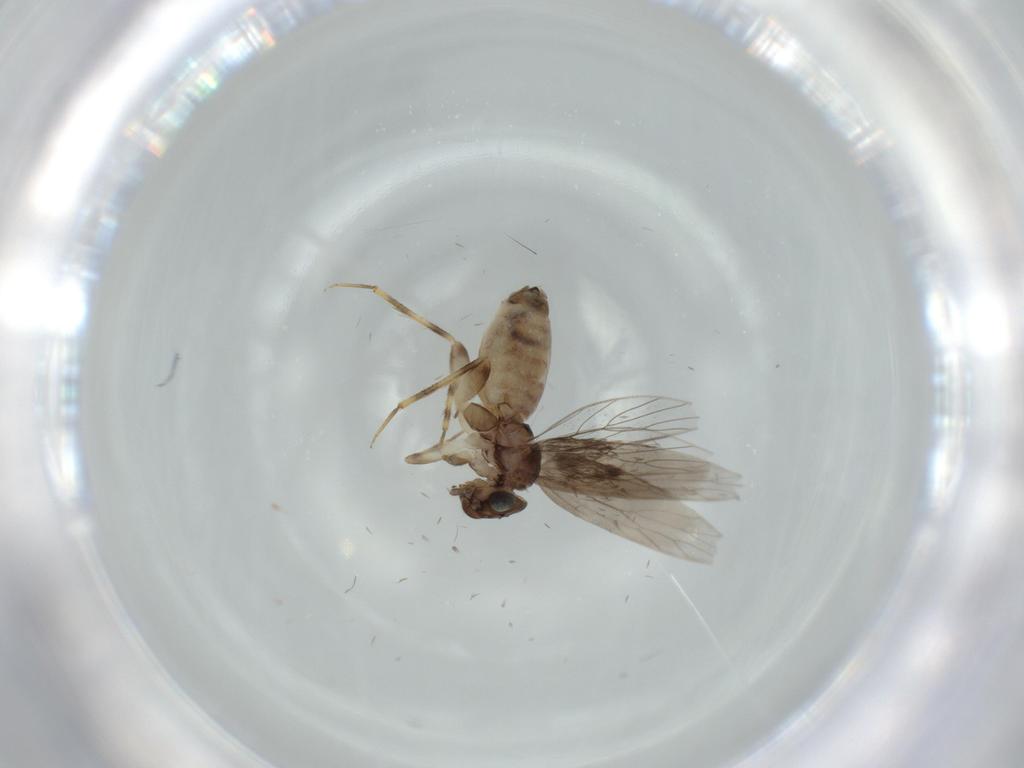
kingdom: Animalia
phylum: Arthropoda
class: Insecta
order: Psocodea
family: Lepidopsocidae
